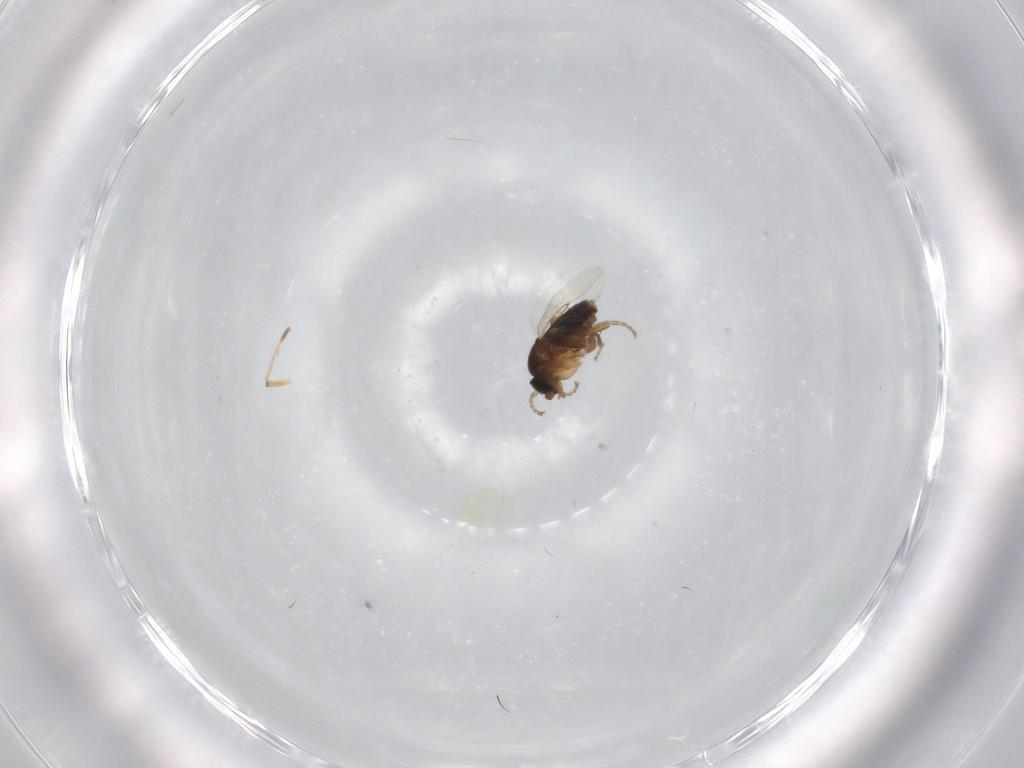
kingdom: Animalia
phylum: Arthropoda
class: Insecta
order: Diptera
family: Phoridae
